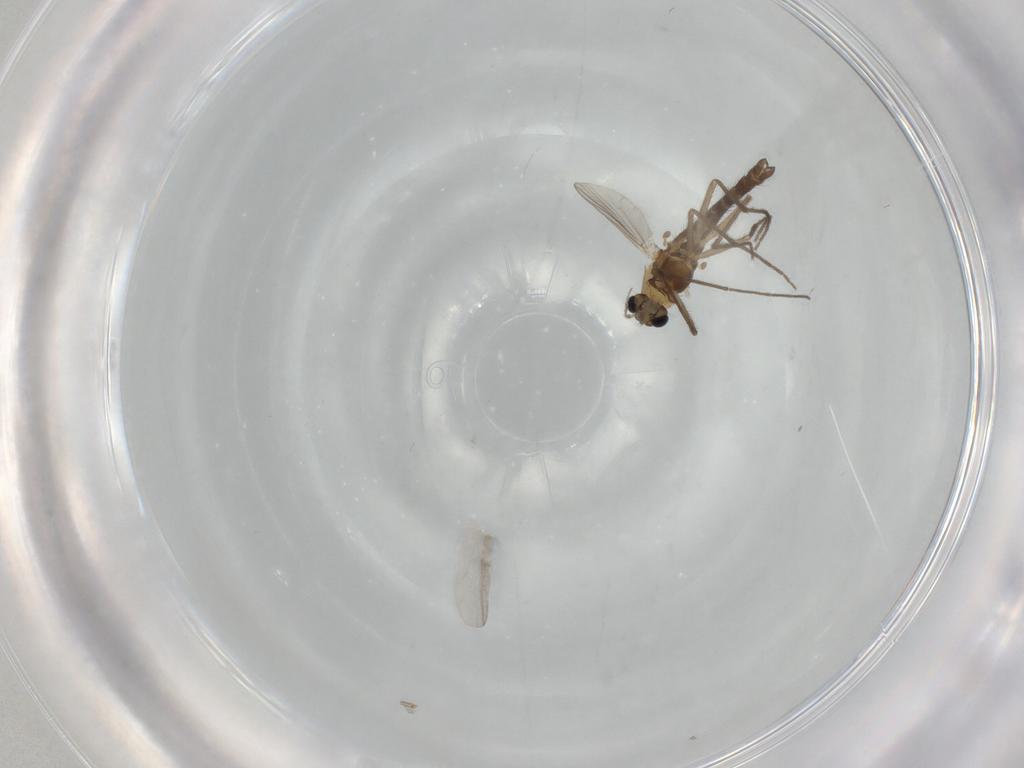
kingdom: Animalia
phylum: Arthropoda
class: Insecta
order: Diptera
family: Chironomidae
